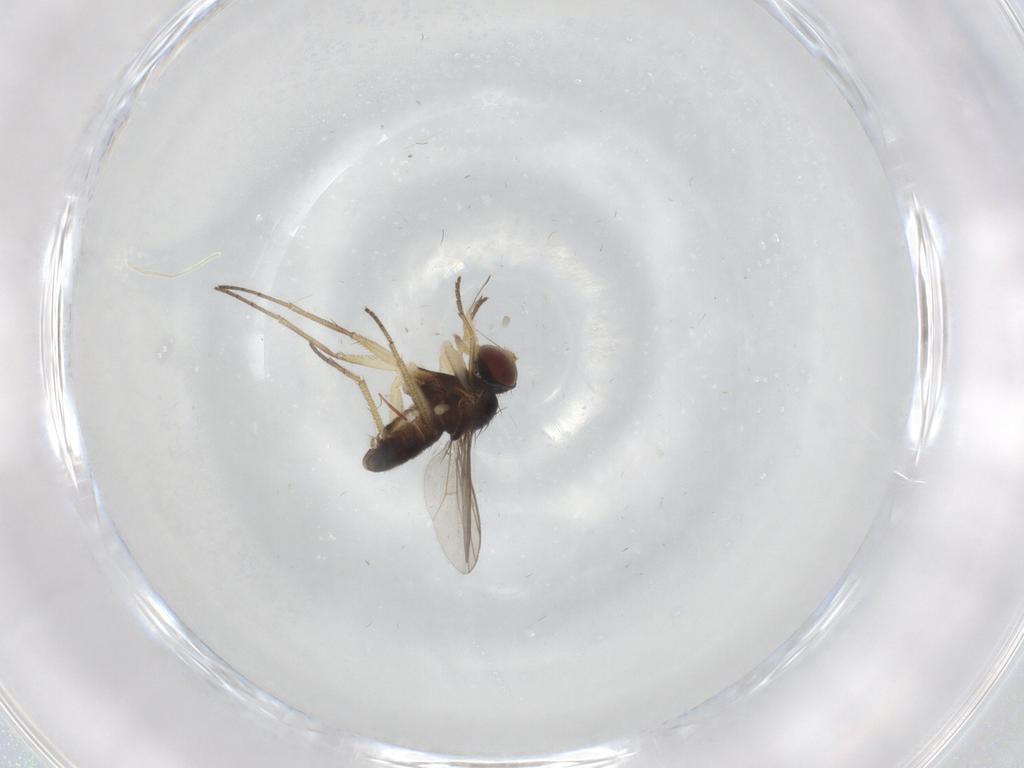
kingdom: Animalia
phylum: Arthropoda
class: Insecta
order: Diptera
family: Dolichopodidae
